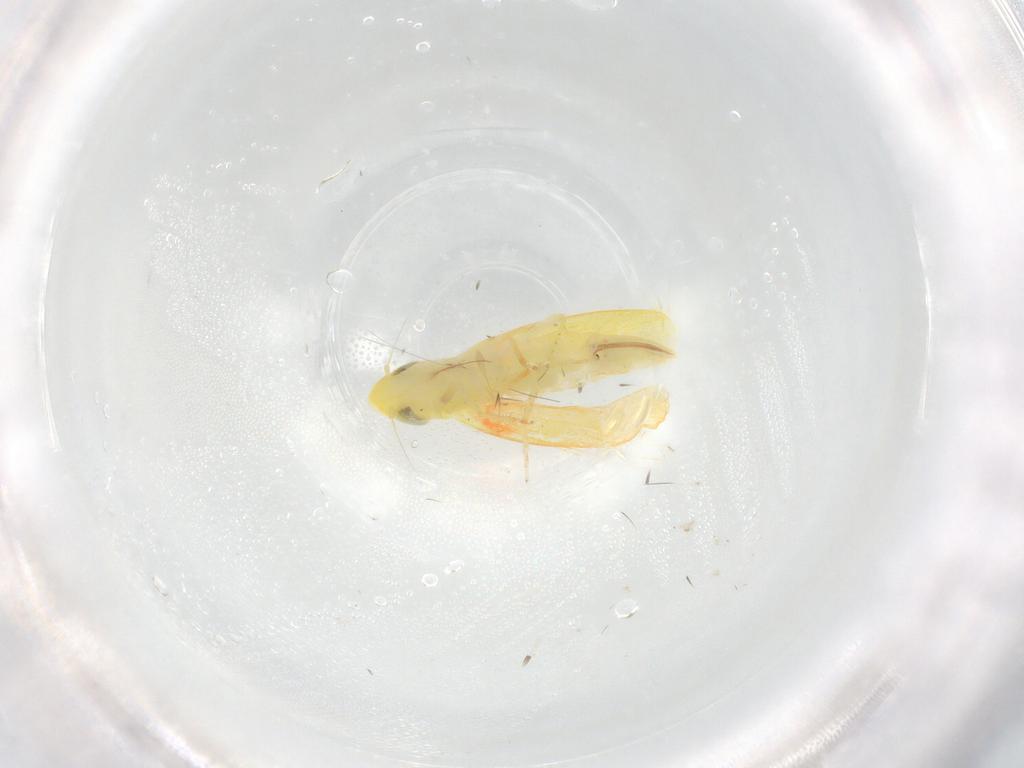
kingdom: Animalia
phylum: Arthropoda
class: Insecta
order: Hemiptera
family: Cicadellidae
